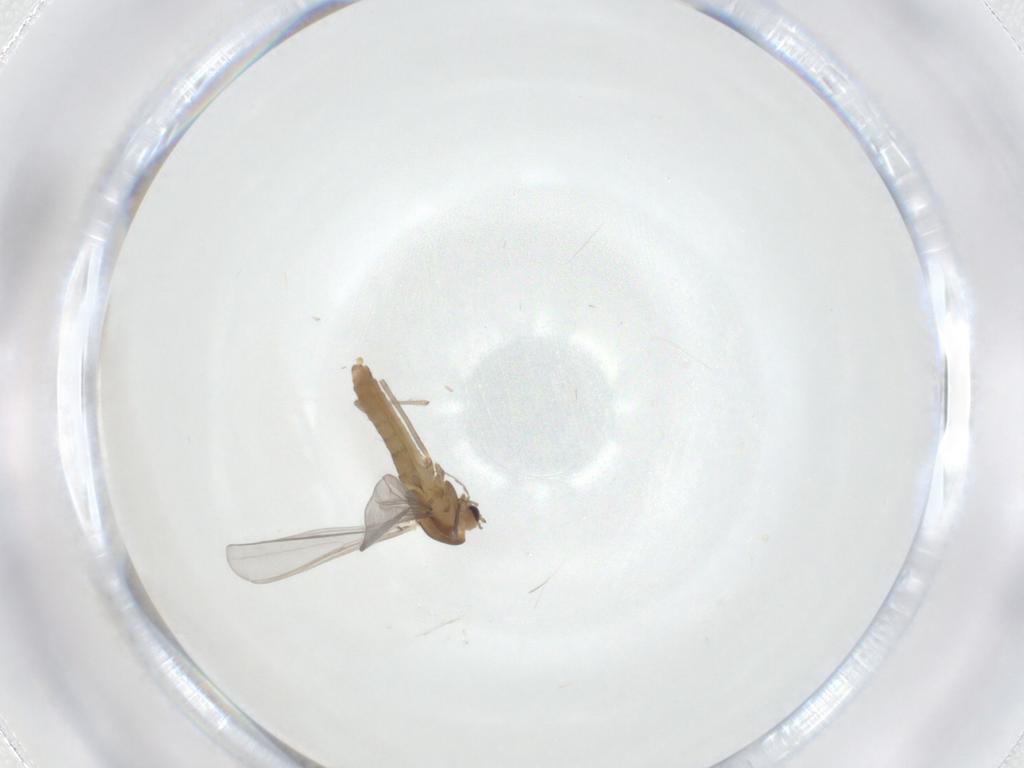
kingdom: Animalia
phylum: Arthropoda
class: Insecta
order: Diptera
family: Chironomidae
